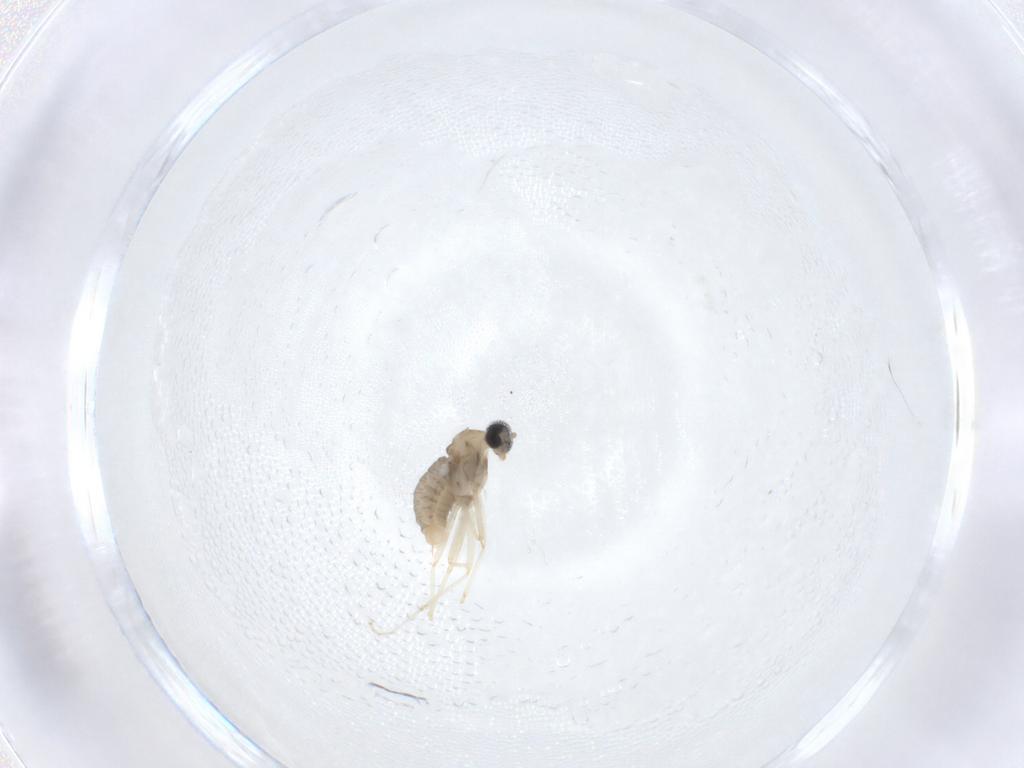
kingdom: Animalia
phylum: Arthropoda
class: Insecta
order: Diptera
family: Cecidomyiidae
